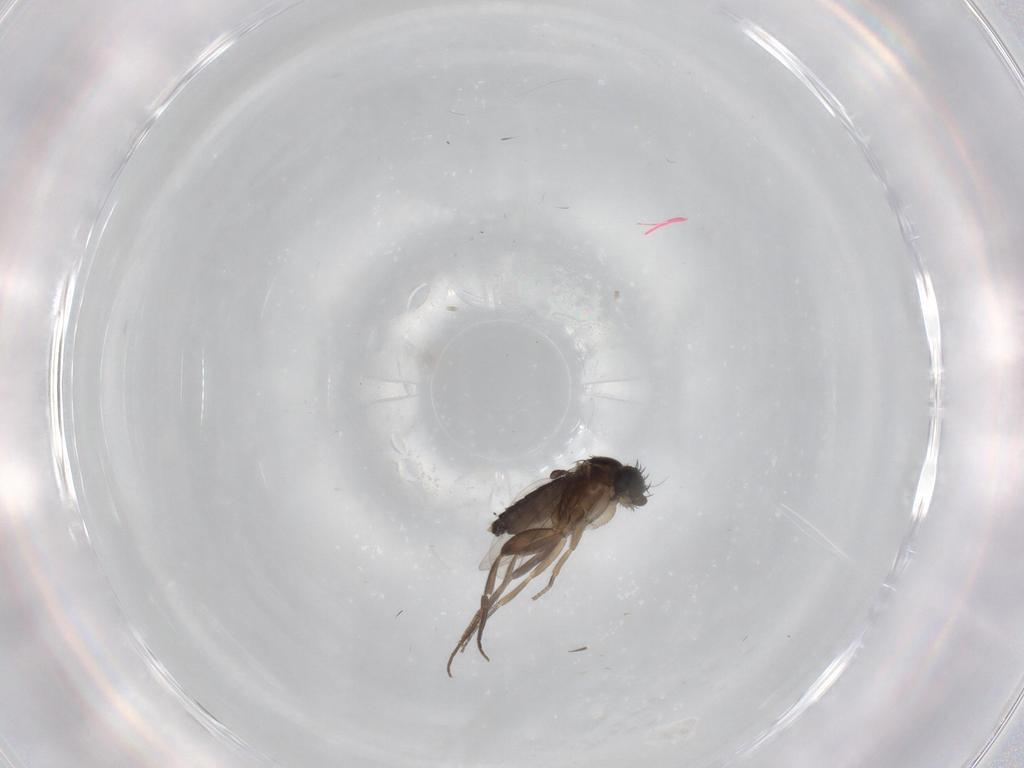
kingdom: Animalia
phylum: Arthropoda
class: Insecta
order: Diptera
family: Phoridae
